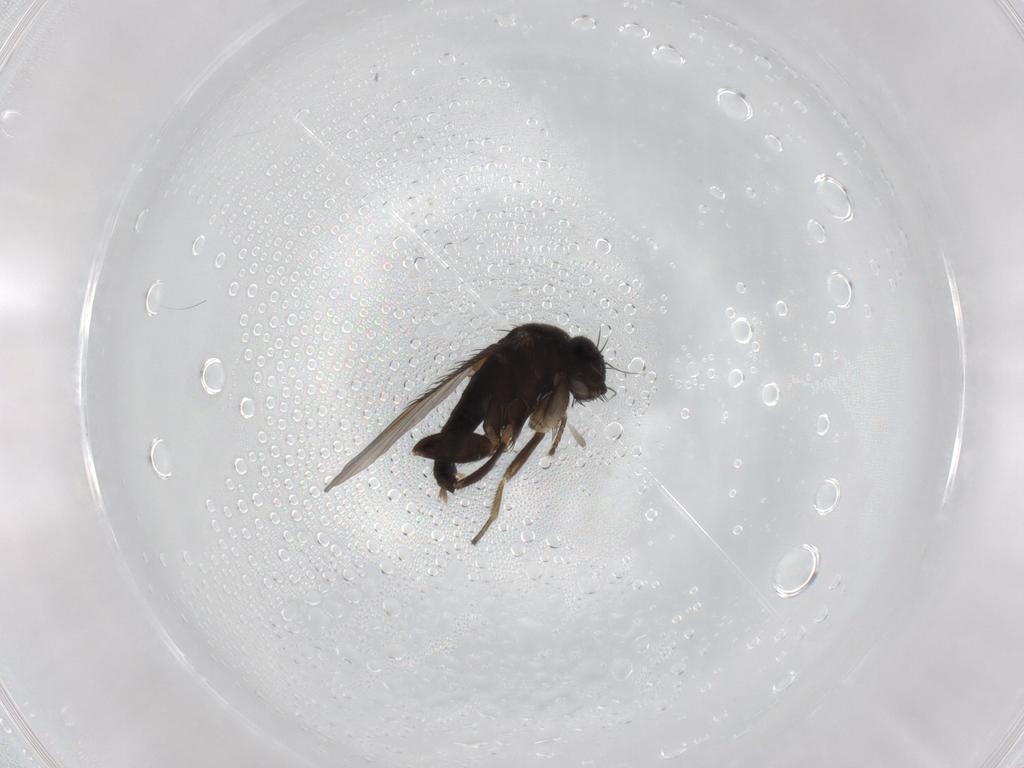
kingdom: Animalia
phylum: Arthropoda
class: Insecta
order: Diptera
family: Phoridae
